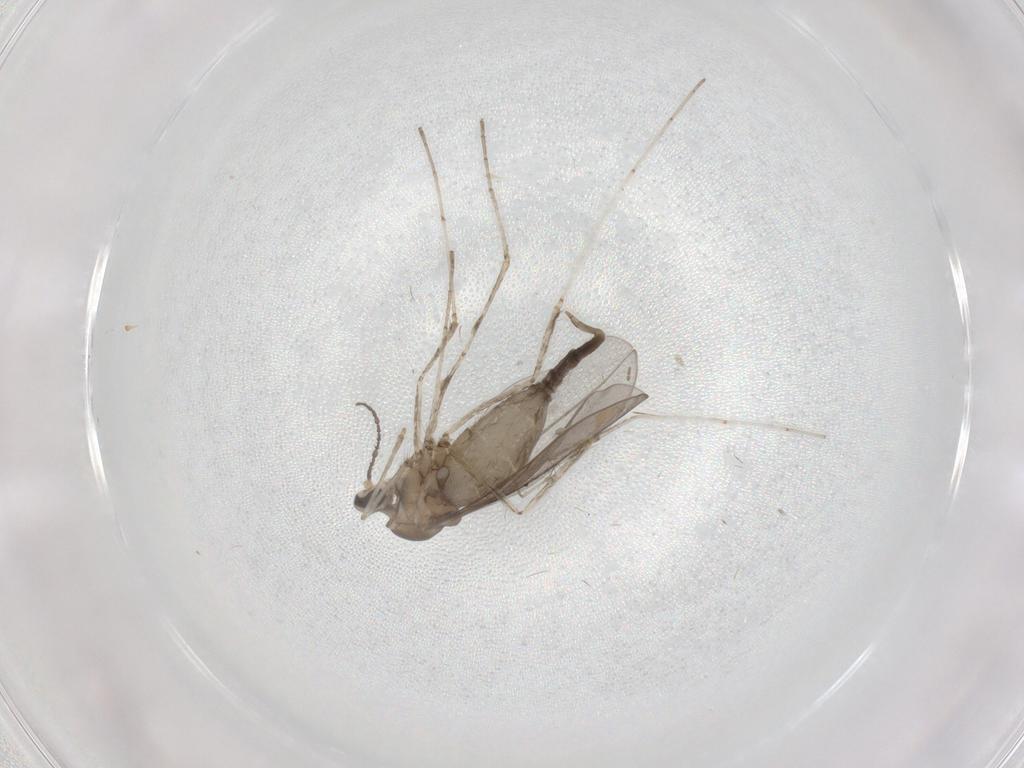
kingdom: Animalia
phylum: Arthropoda
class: Insecta
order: Diptera
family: Cecidomyiidae
